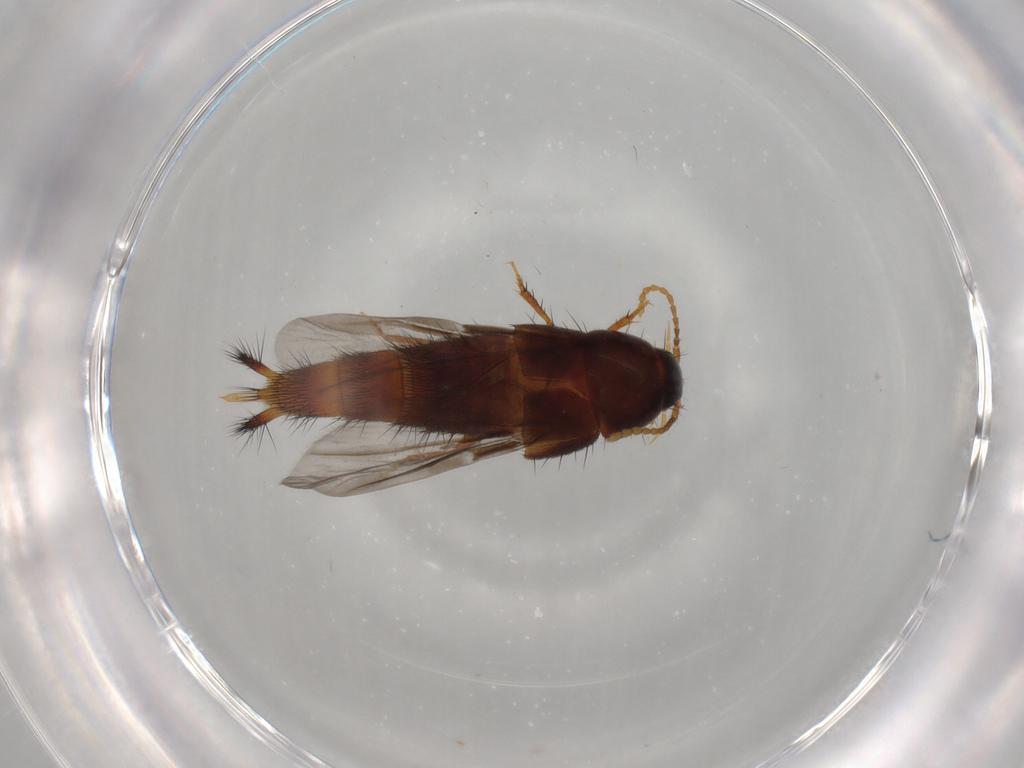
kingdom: Animalia
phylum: Arthropoda
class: Insecta
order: Coleoptera
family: Staphylinidae
